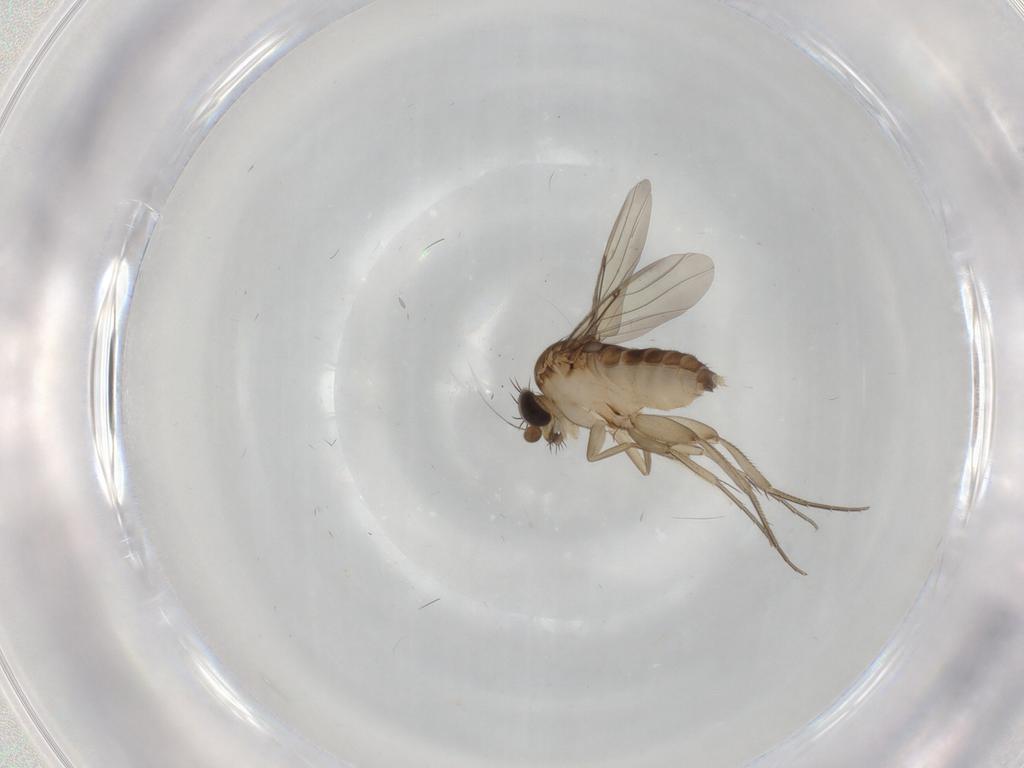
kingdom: Animalia
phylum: Arthropoda
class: Insecta
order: Diptera
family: Phoridae
